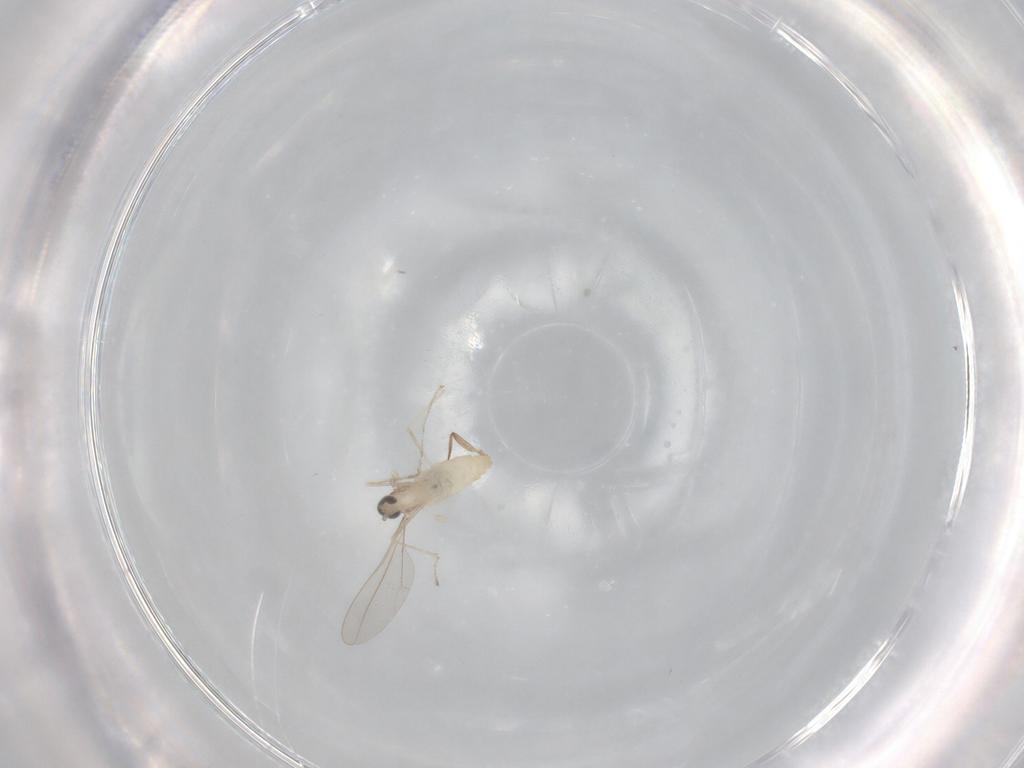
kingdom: Animalia
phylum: Arthropoda
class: Insecta
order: Diptera
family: Cecidomyiidae
